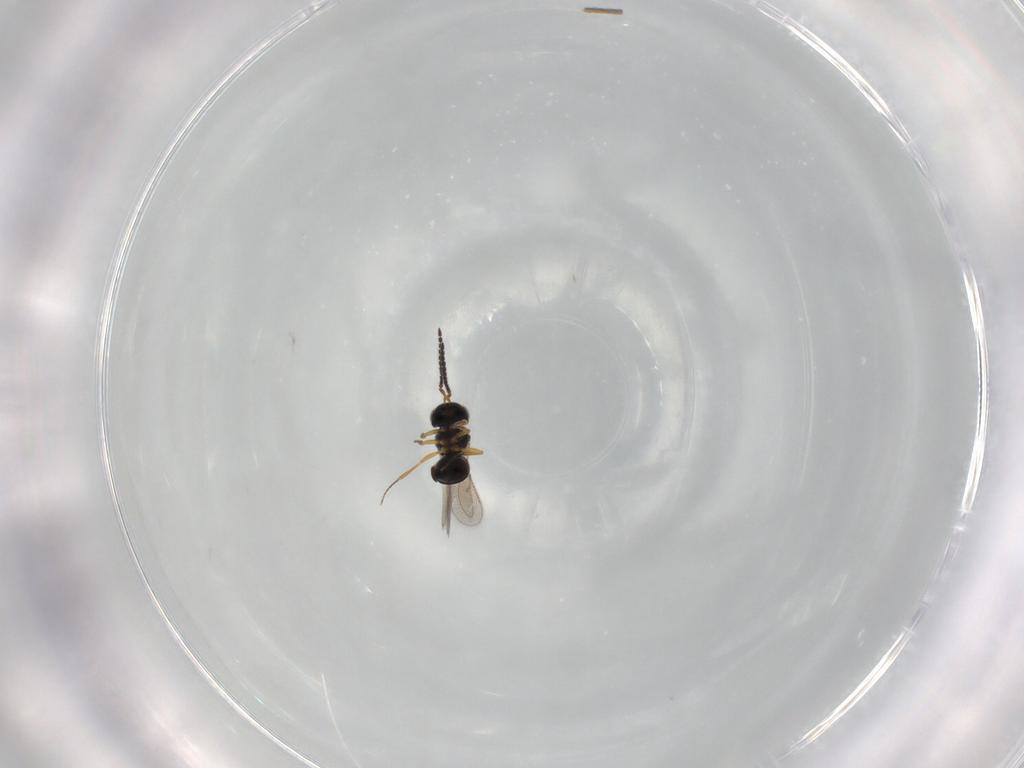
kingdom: Animalia
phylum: Arthropoda
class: Insecta
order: Hymenoptera
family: Scelionidae
